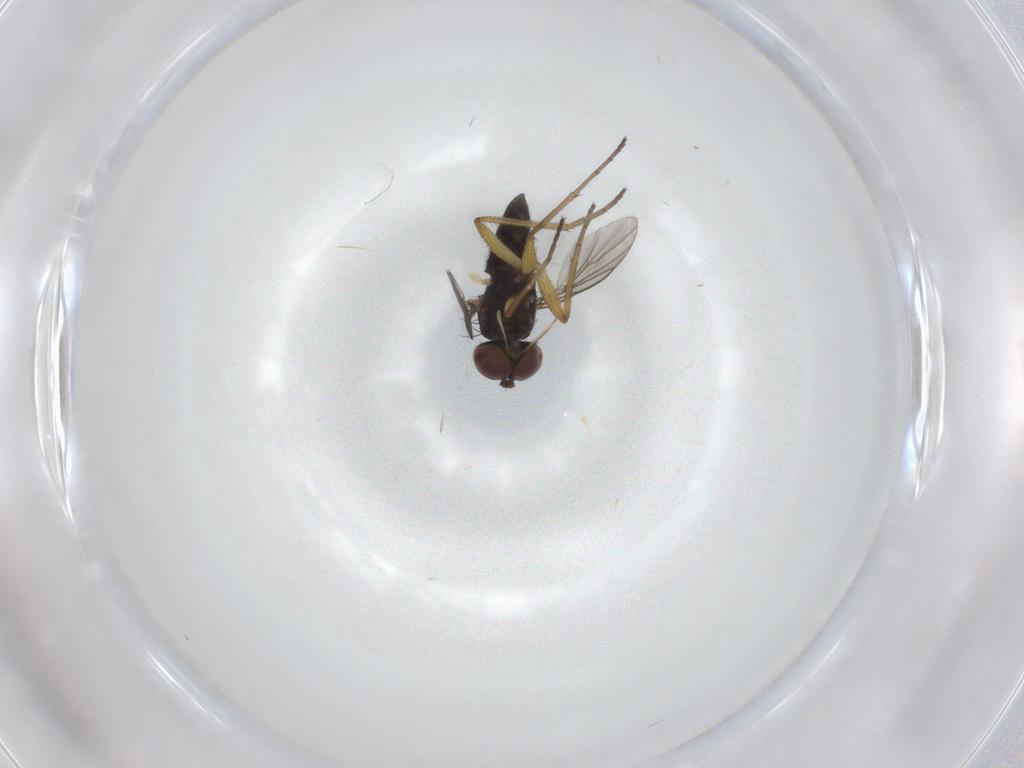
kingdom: Animalia
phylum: Arthropoda
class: Insecta
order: Diptera
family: Dolichopodidae
